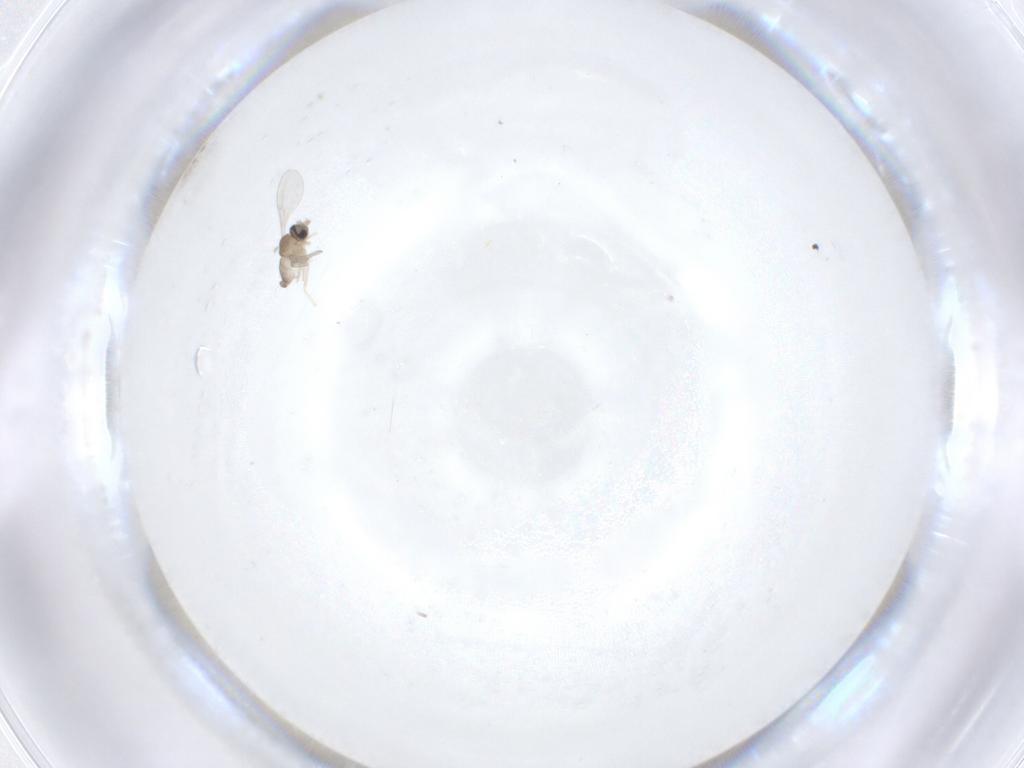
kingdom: Animalia
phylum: Arthropoda
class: Insecta
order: Diptera
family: Cecidomyiidae
